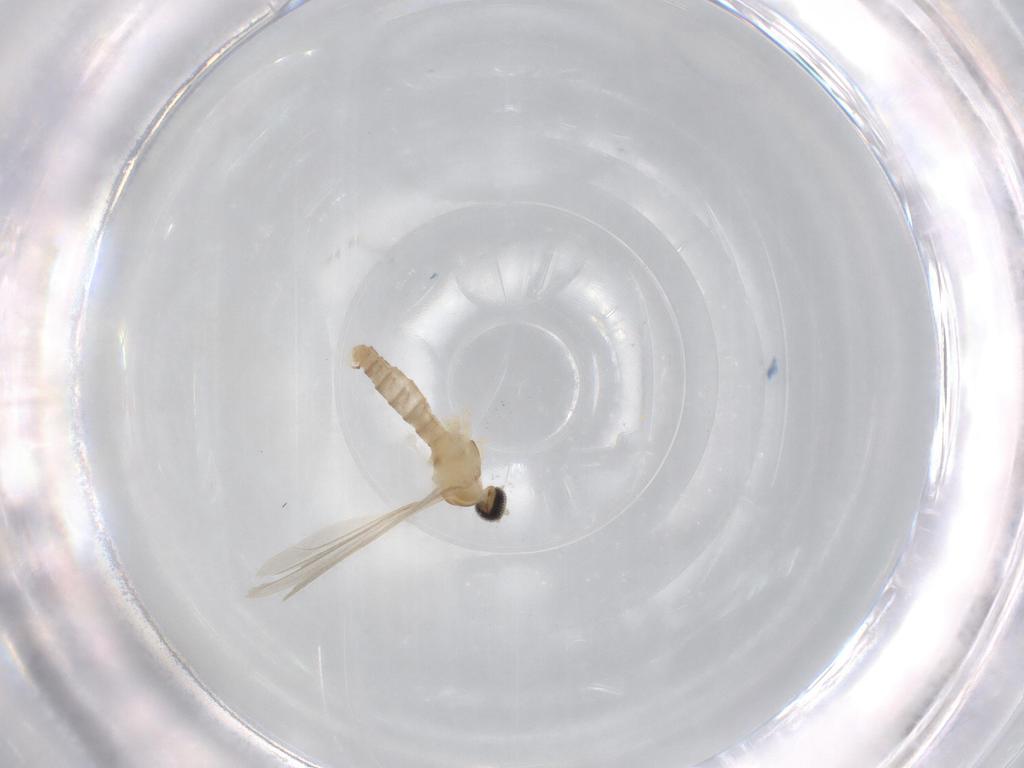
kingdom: Animalia
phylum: Arthropoda
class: Insecta
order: Diptera
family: Cecidomyiidae
